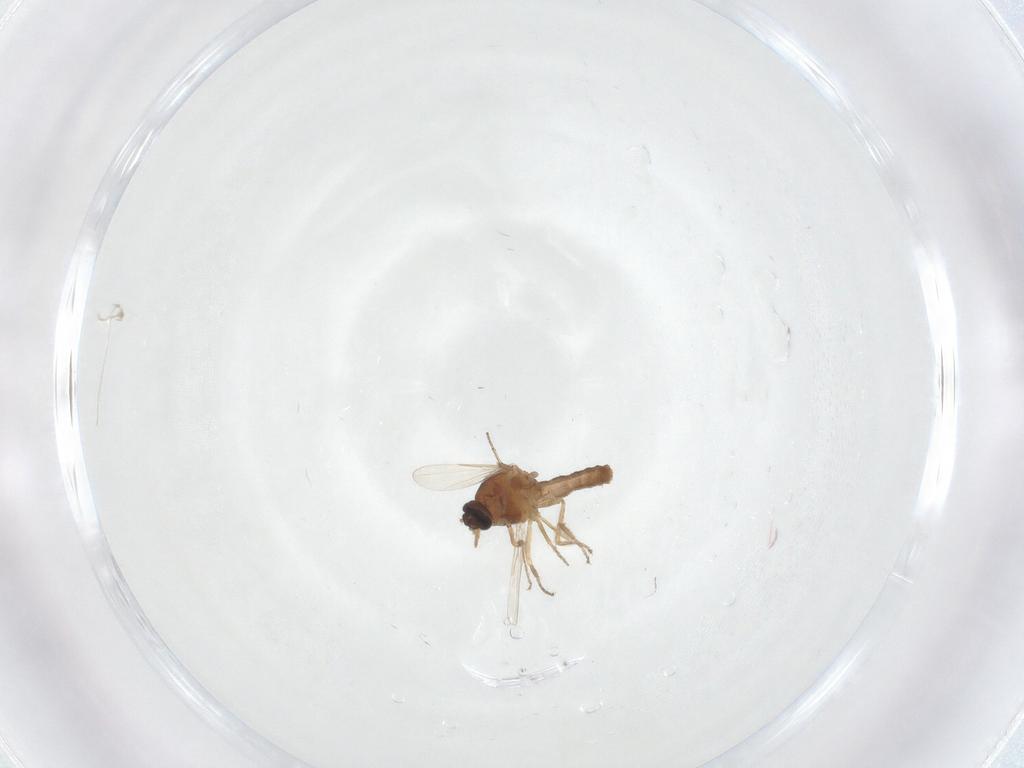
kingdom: Animalia
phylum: Arthropoda
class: Insecta
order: Diptera
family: Ceratopogonidae
